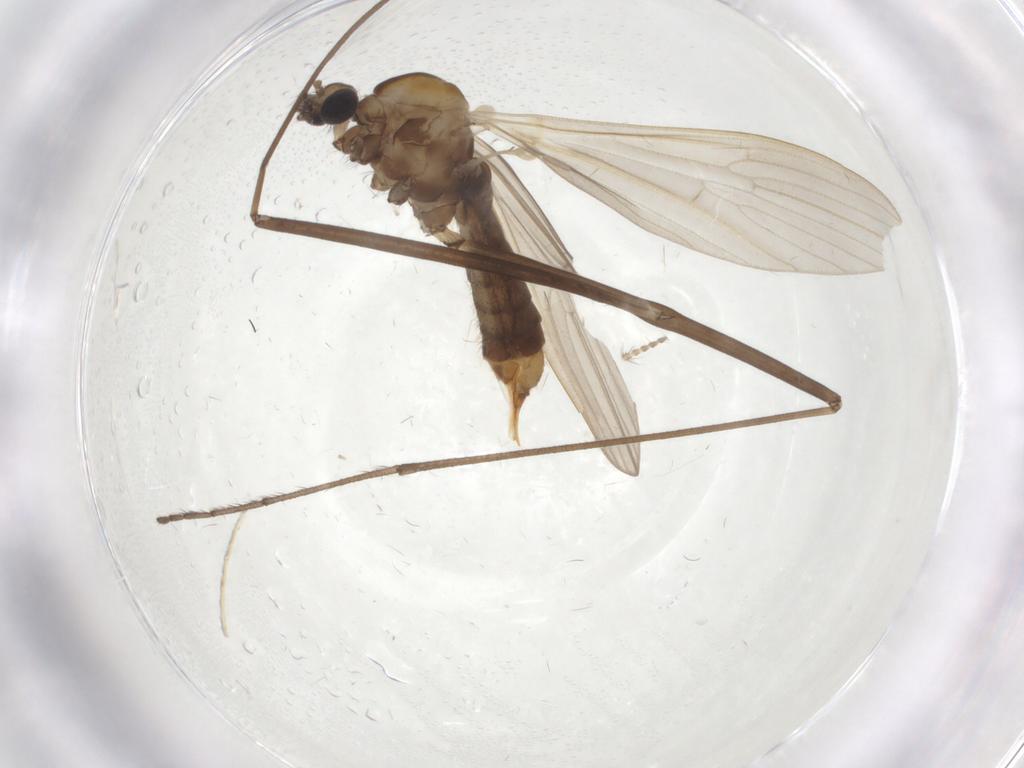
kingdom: Animalia
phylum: Arthropoda
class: Insecta
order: Diptera
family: Ceratopogonidae
